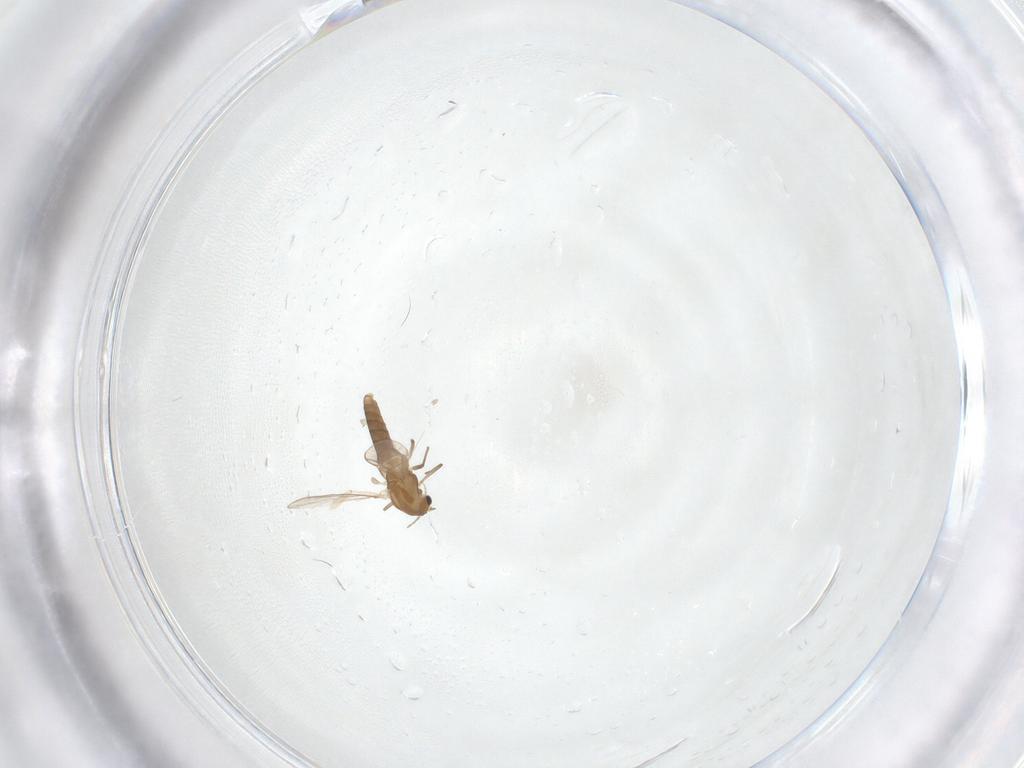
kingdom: Animalia
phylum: Arthropoda
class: Insecta
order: Diptera
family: Psychodidae
